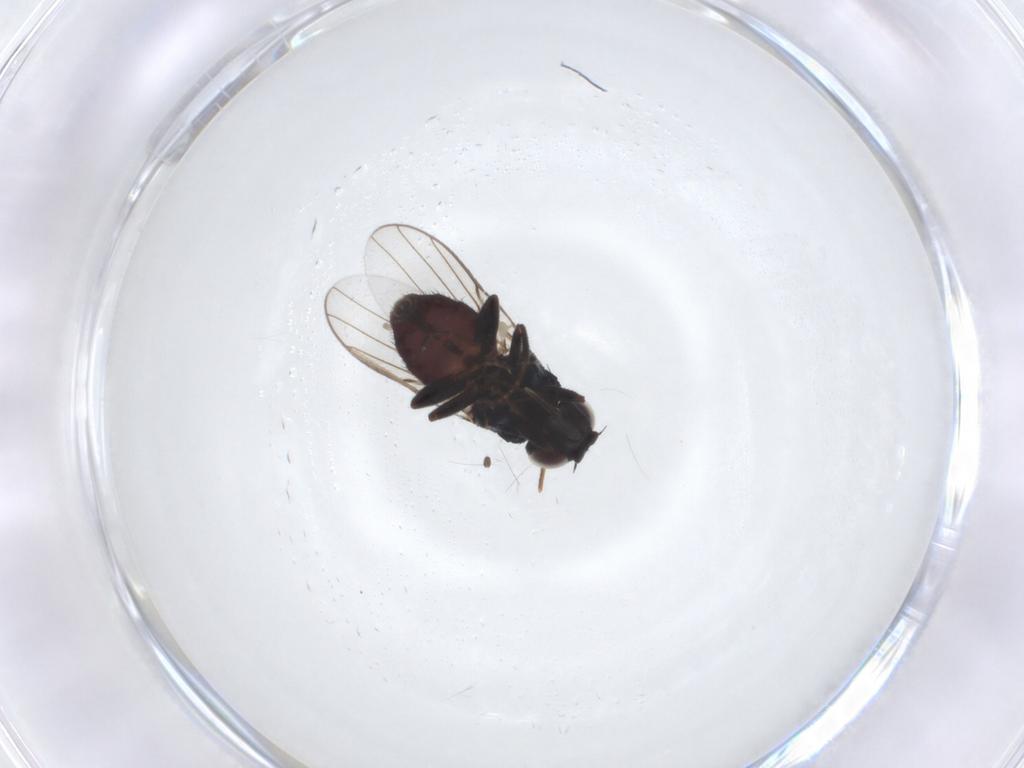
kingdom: Animalia
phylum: Arthropoda
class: Insecta
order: Diptera
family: Chloropidae
